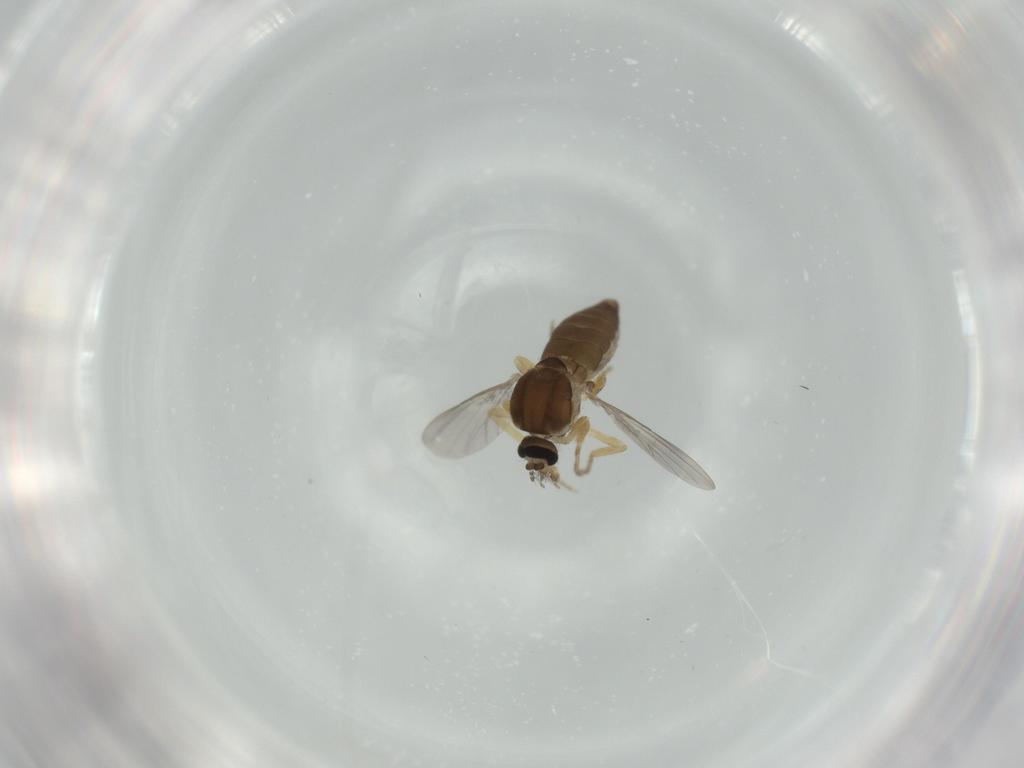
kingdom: Animalia
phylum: Arthropoda
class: Insecta
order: Diptera
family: Ceratopogonidae
